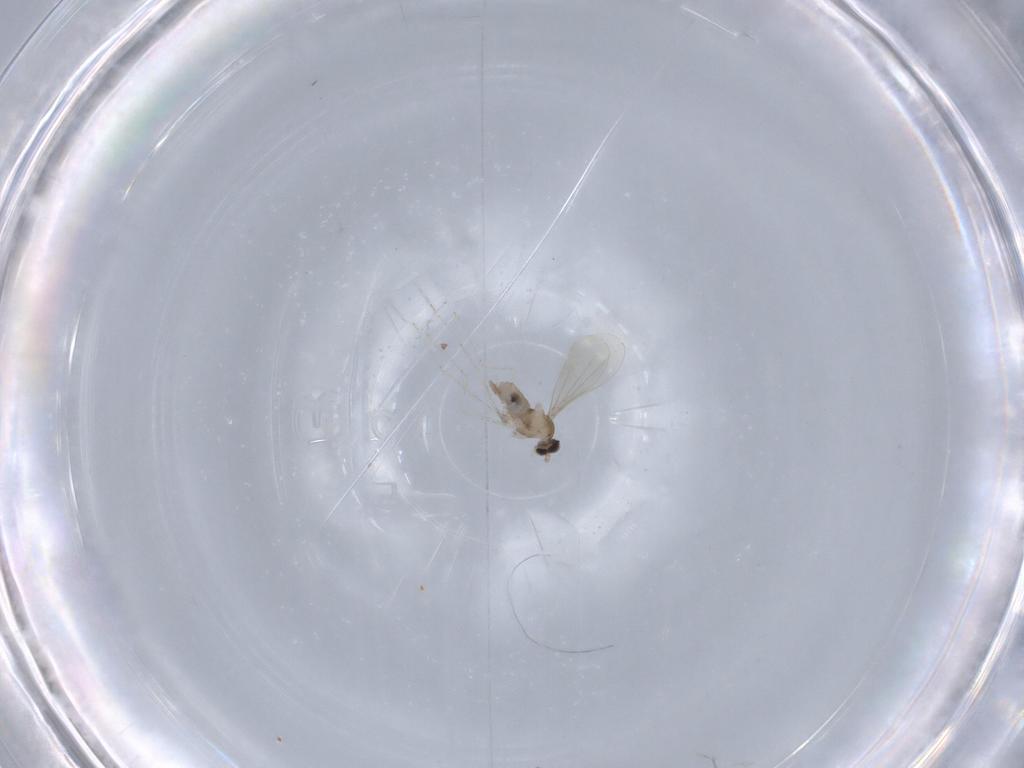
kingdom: Animalia
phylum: Arthropoda
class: Insecta
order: Diptera
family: Cecidomyiidae
